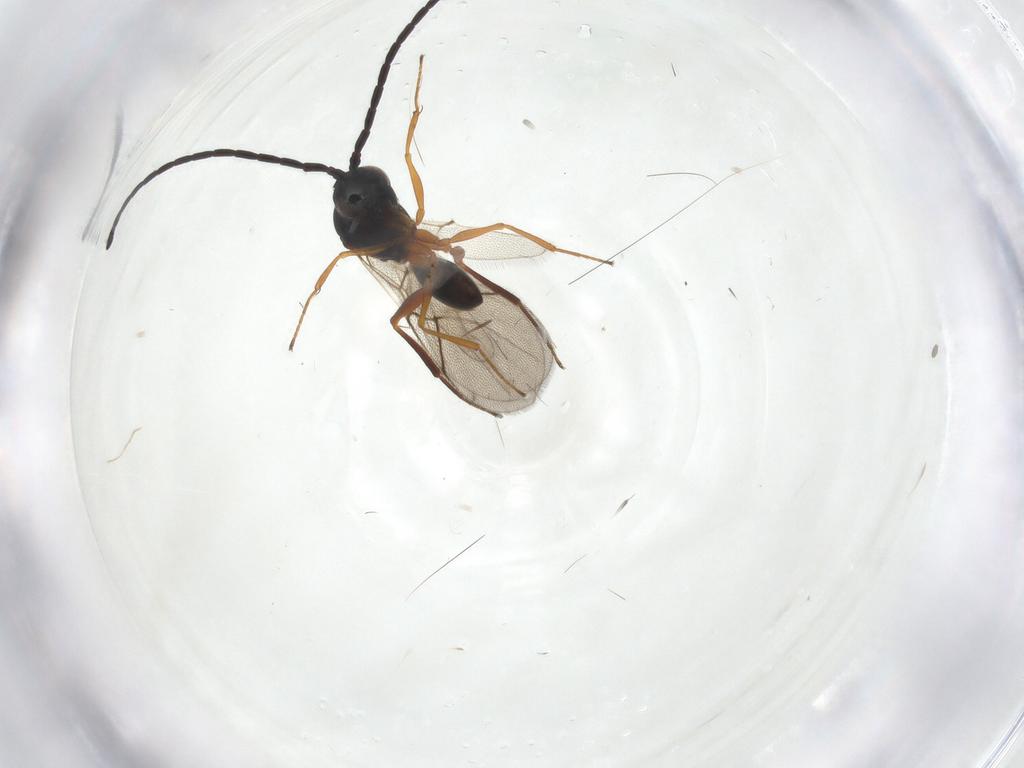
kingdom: Animalia
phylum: Arthropoda
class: Insecta
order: Hymenoptera
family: Figitidae
